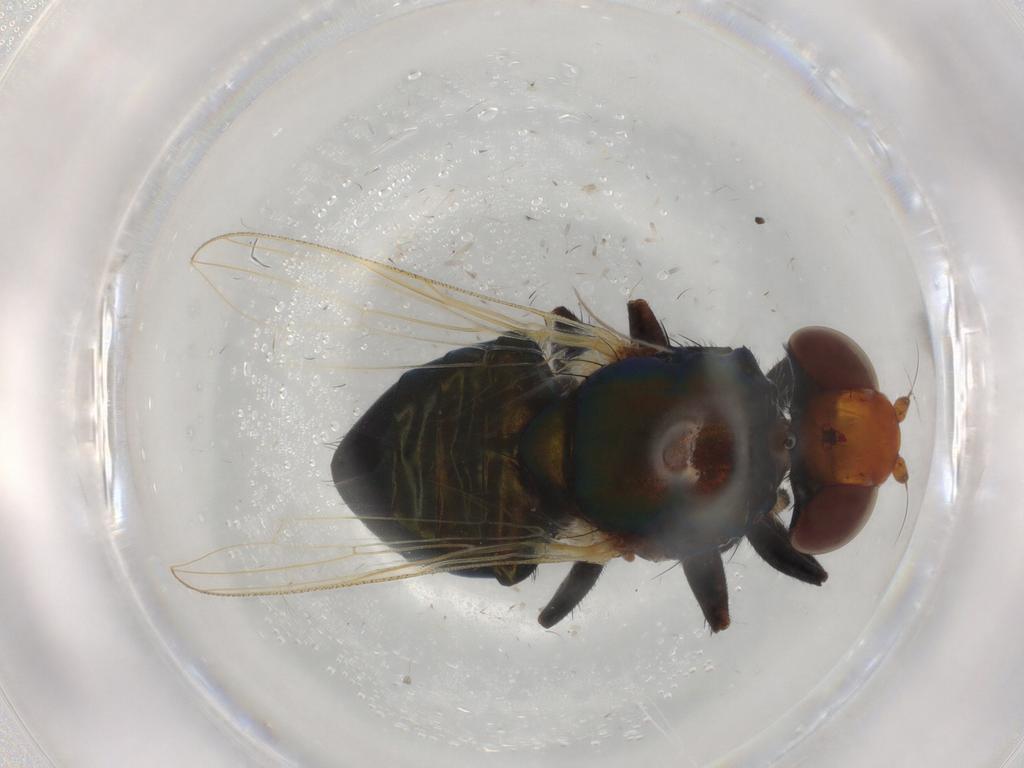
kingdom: Animalia
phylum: Arthropoda
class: Insecta
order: Diptera
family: Ulidiidae
